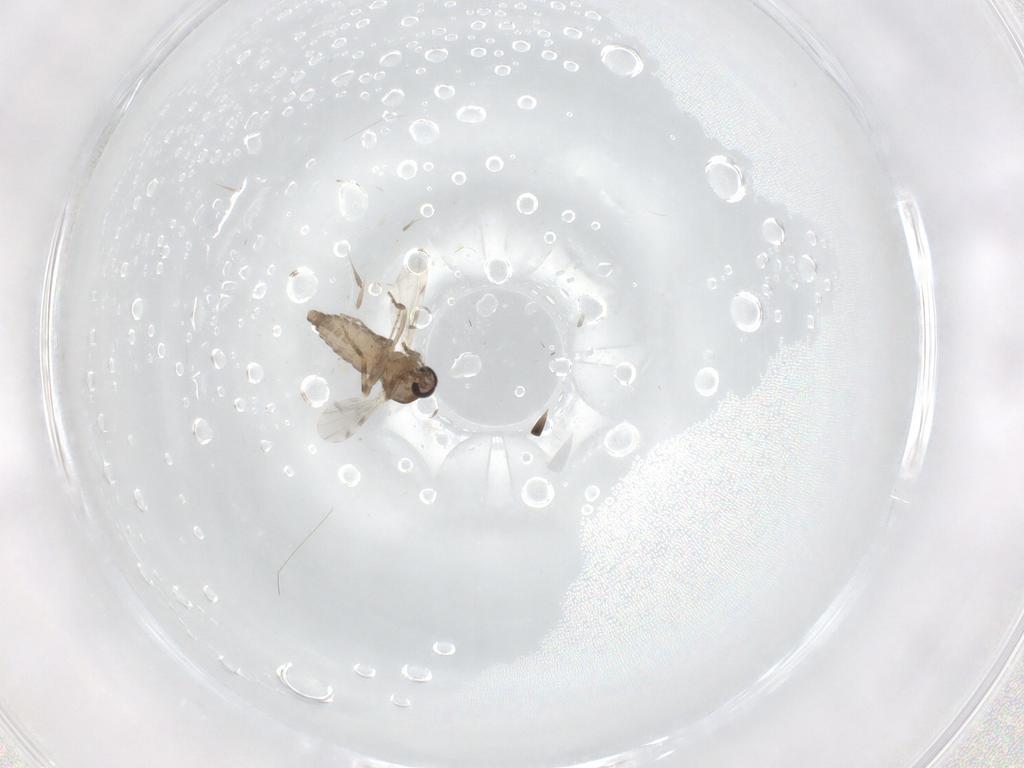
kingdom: Animalia
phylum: Arthropoda
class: Insecta
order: Diptera
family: Ceratopogonidae
